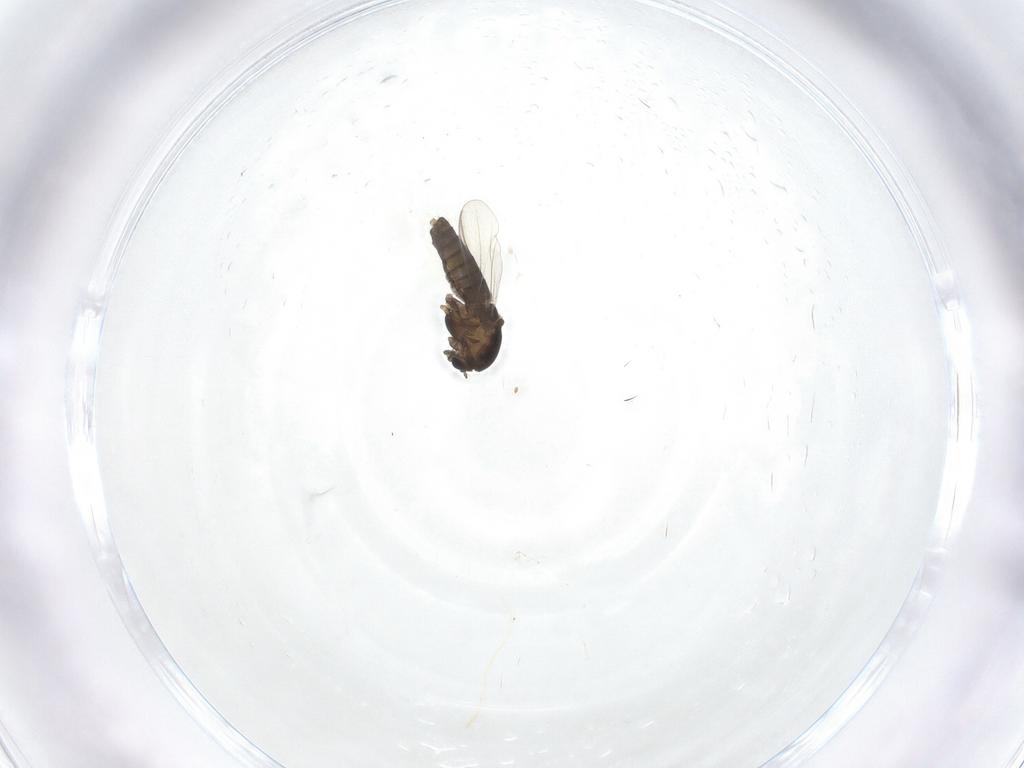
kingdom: Animalia
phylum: Arthropoda
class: Insecta
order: Diptera
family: Chironomidae
